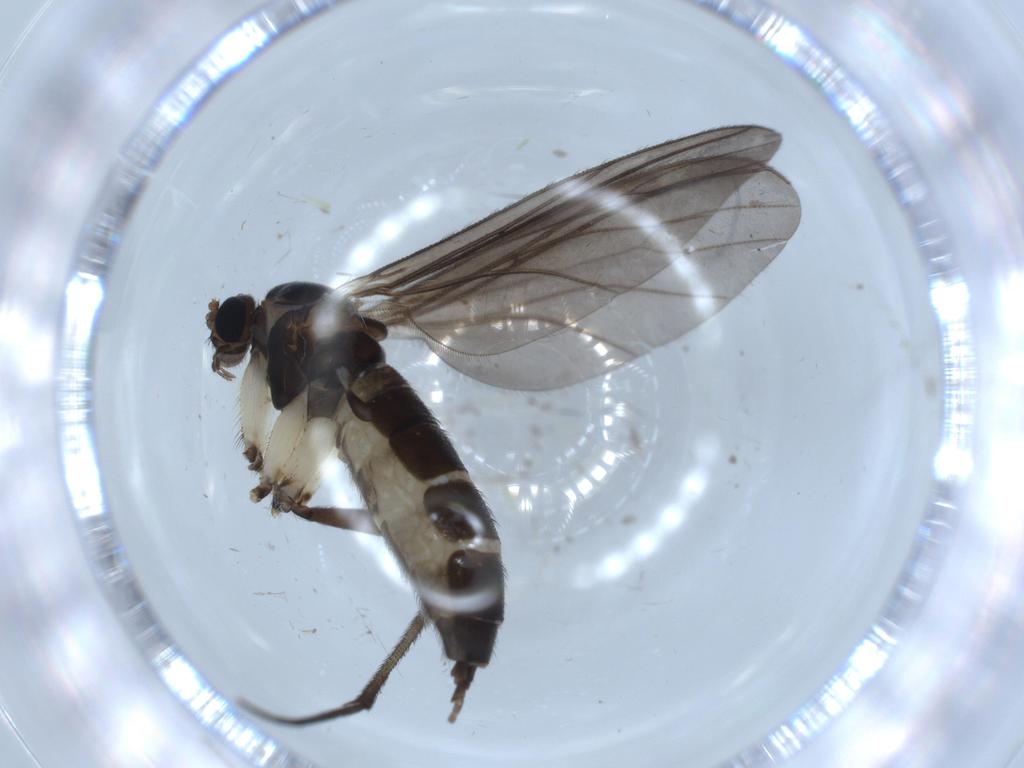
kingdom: Animalia
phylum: Arthropoda
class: Insecta
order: Diptera
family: Sciaridae
